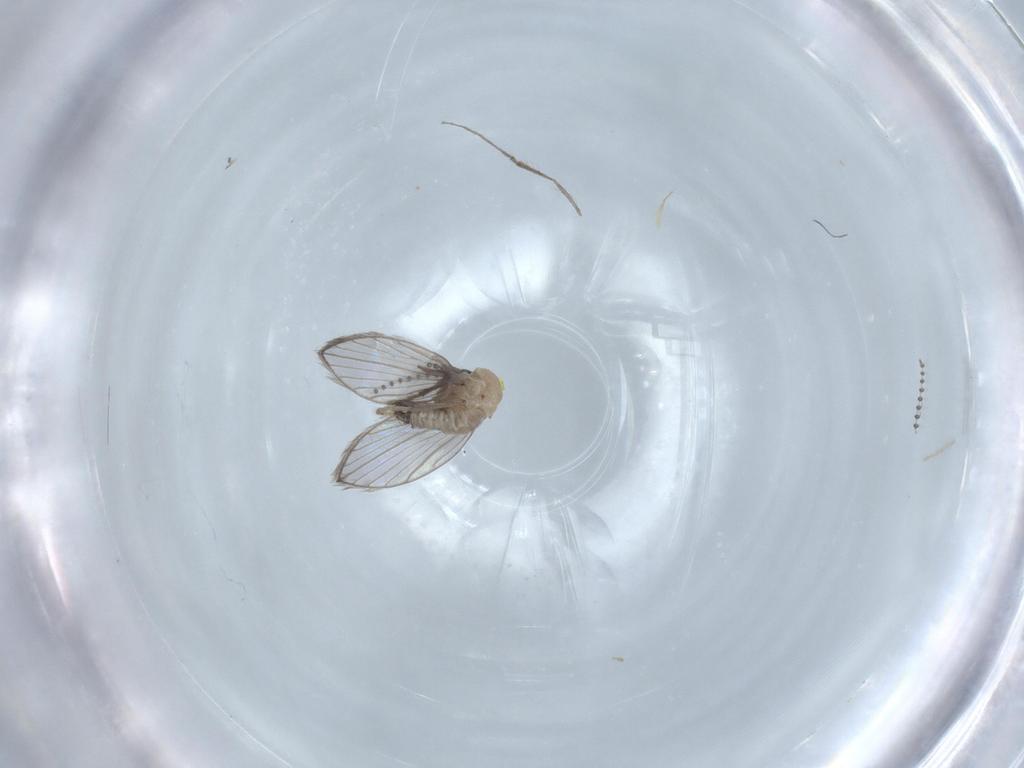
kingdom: Animalia
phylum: Arthropoda
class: Insecta
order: Diptera
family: Psychodidae
